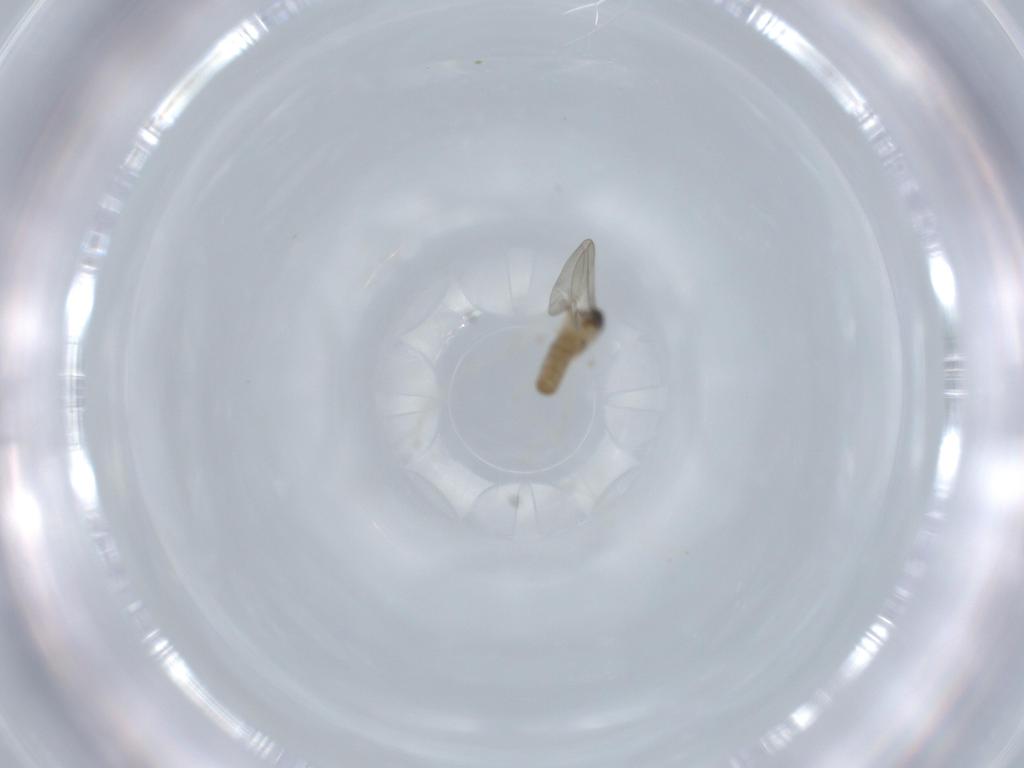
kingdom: Animalia
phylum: Arthropoda
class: Insecta
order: Diptera
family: Cecidomyiidae
